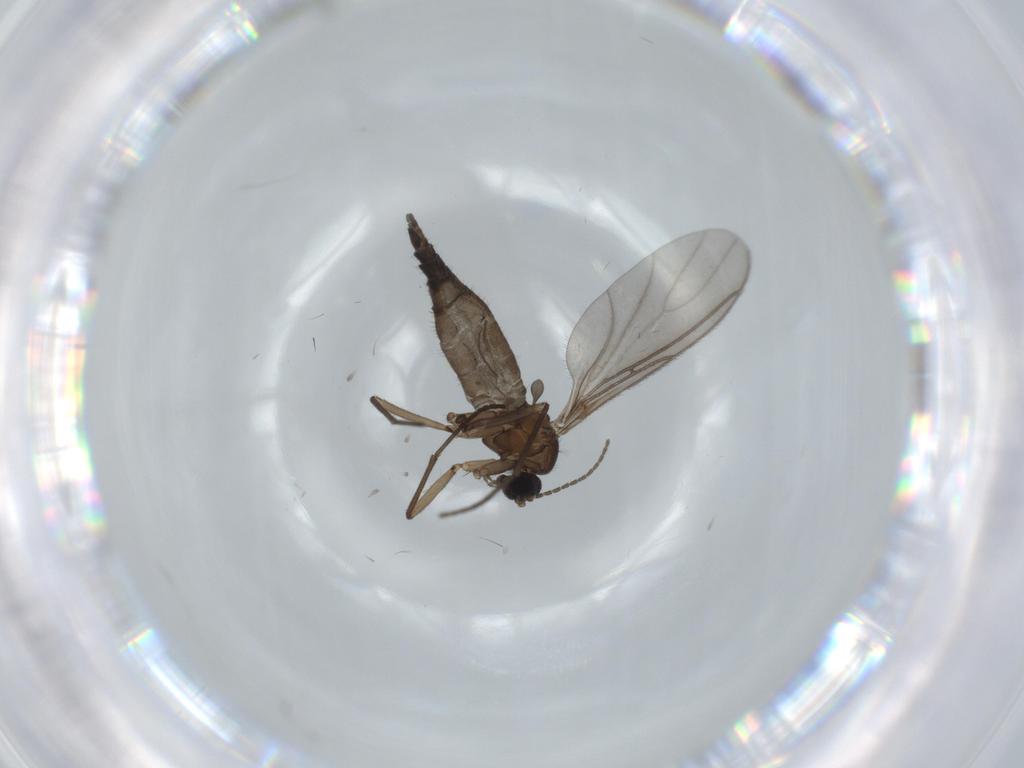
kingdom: Animalia
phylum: Arthropoda
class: Insecta
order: Diptera
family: Sciaridae
